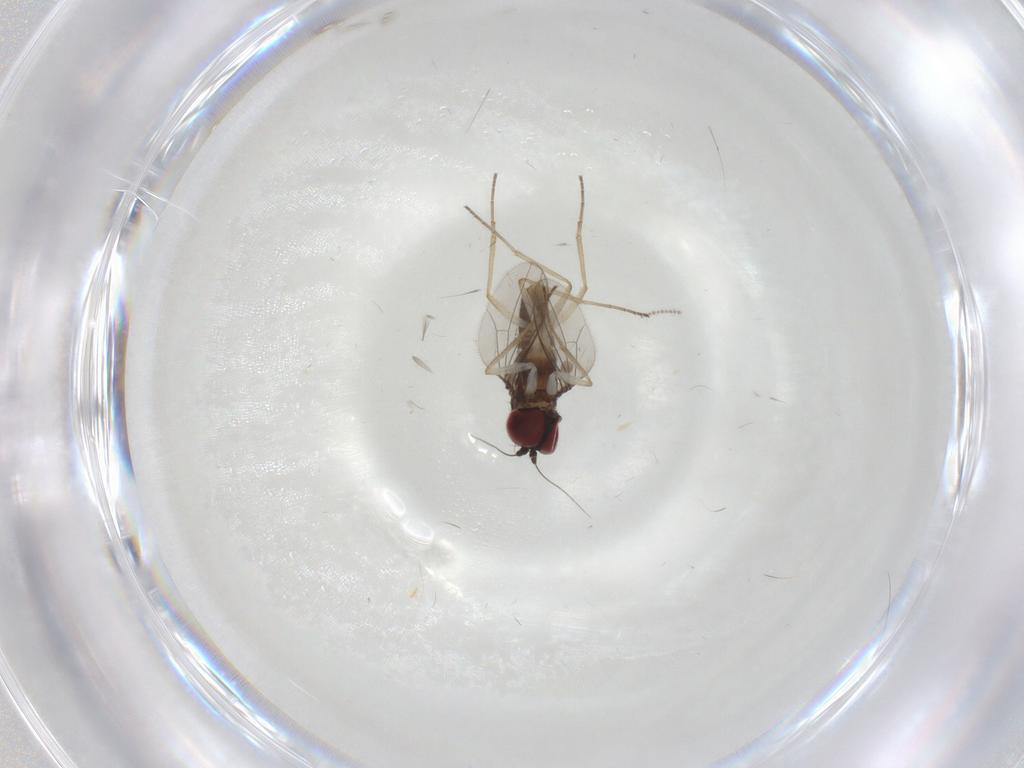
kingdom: Animalia
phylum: Arthropoda
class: Insecta
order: Diptera
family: Dolichopodidae
